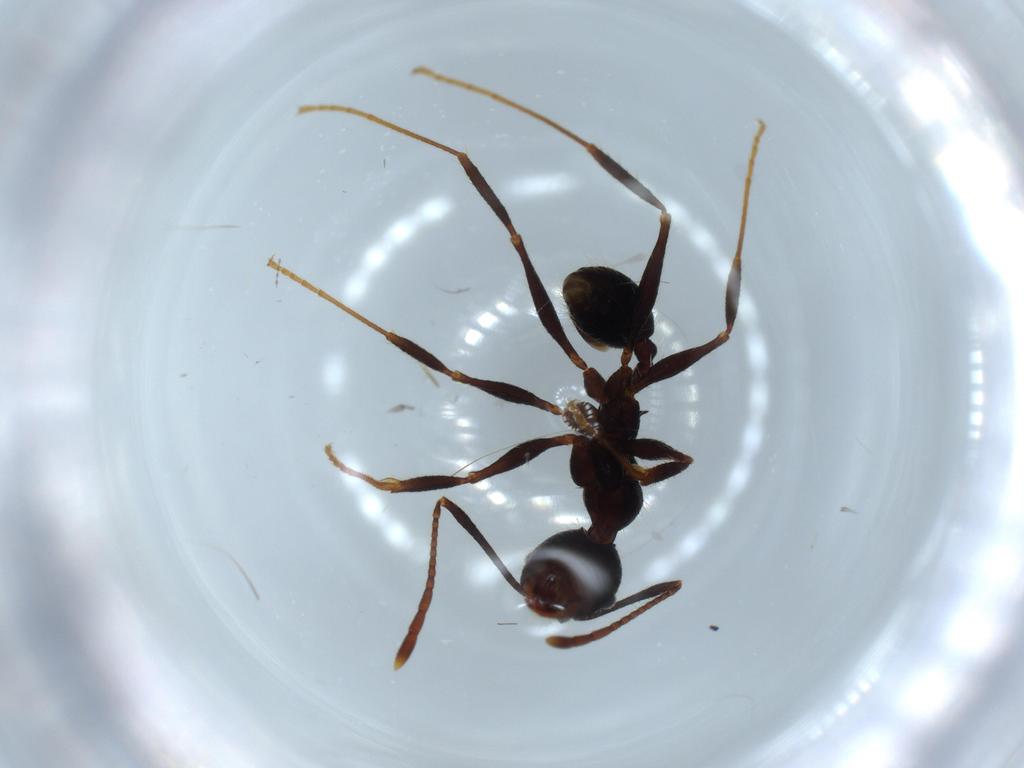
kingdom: Animalia
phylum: Arthropoda
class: Insecta
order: Hymenoptera
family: Formicidae
